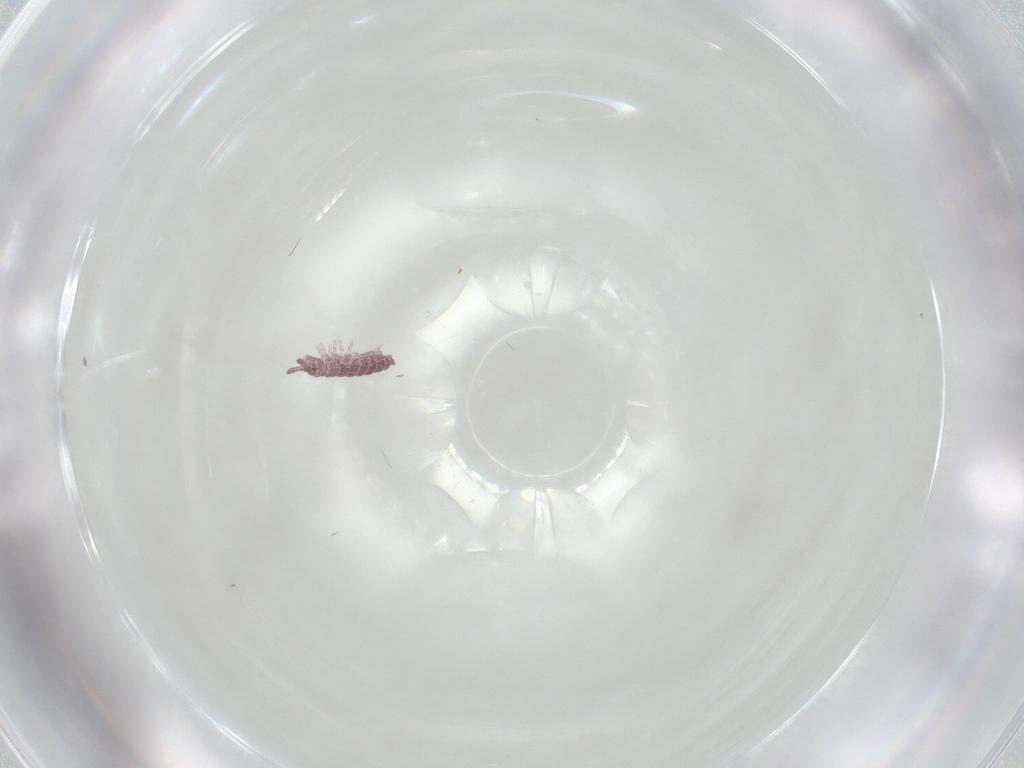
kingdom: Animalia
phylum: Arthropoda
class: Collembola
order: Poduromorpha
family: Hypogastruridae
